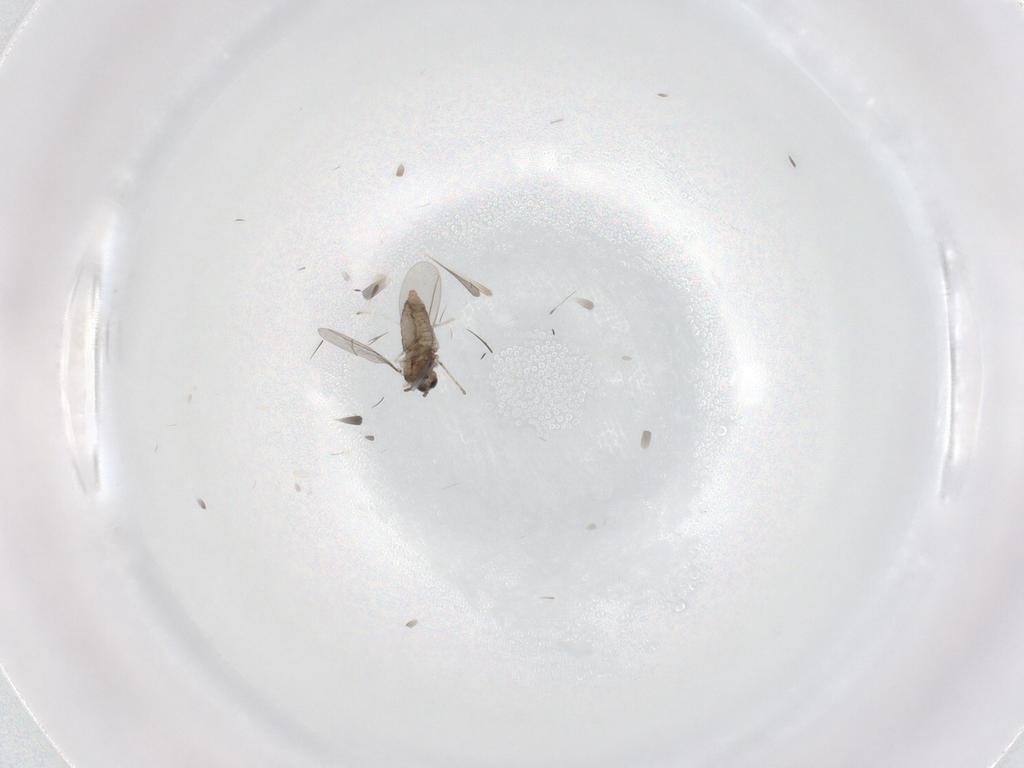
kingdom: Animalia
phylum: Arthropoda
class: Insecta
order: Diptera
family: Cecidomyiidae
